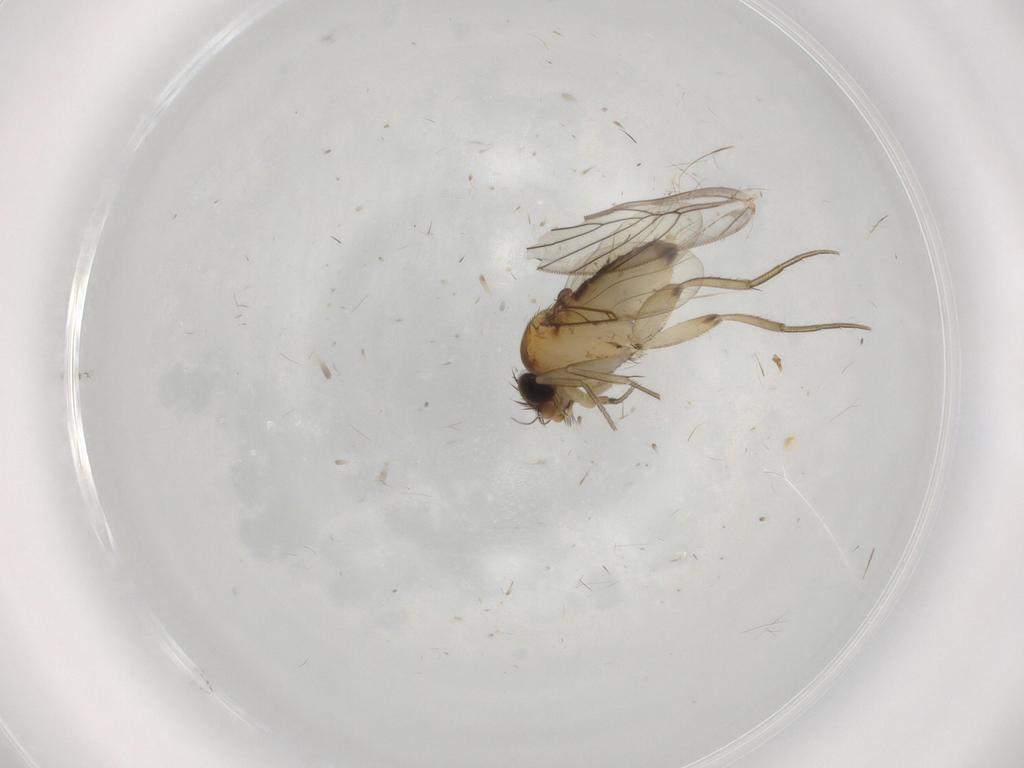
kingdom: Animalia
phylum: Arthropoda
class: Insecta
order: Diptera
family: Phoridae
